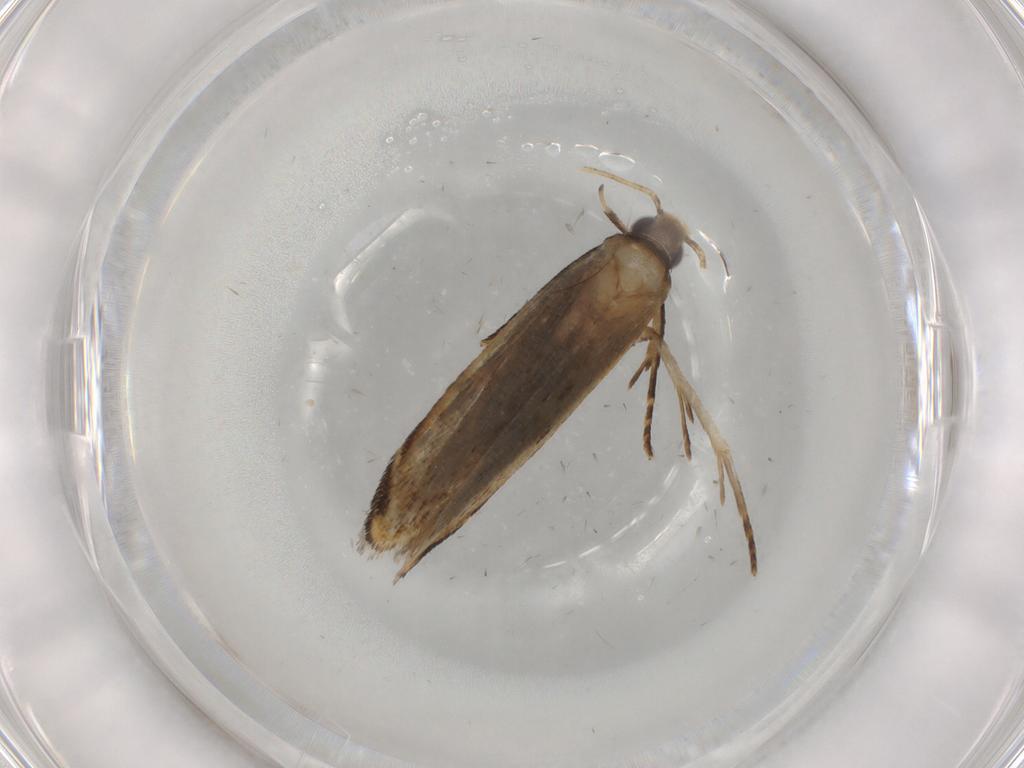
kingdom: Animalia
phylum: Arthropoda
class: Insecta
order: Lepidoptera
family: Gelechiidae
